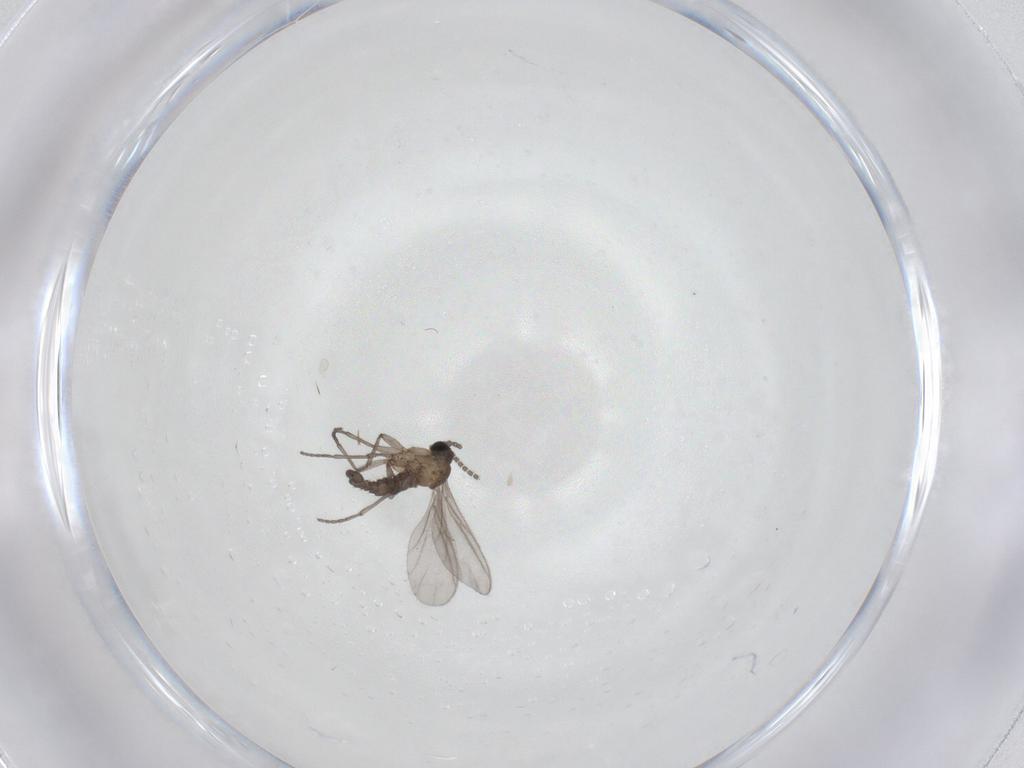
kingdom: Animalia
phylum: Arthropoda
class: Insecta
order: Diptera
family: Sciaridae
